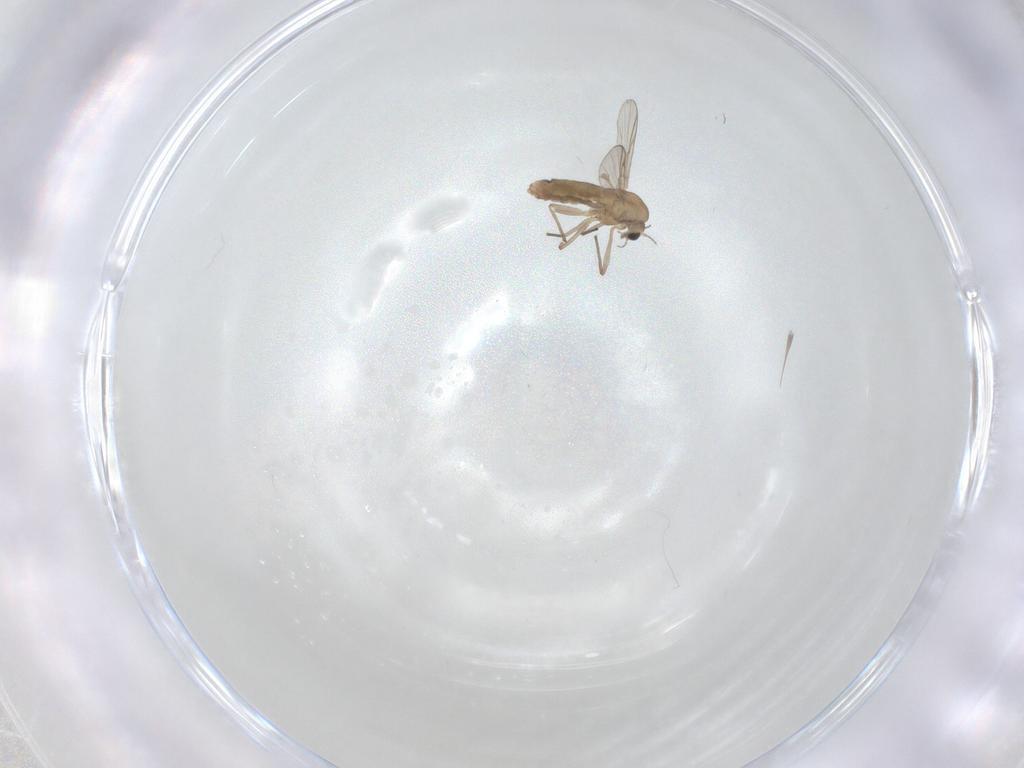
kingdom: Animalia
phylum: Arthropoda
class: Insecta
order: Diptera
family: Chironomidae
